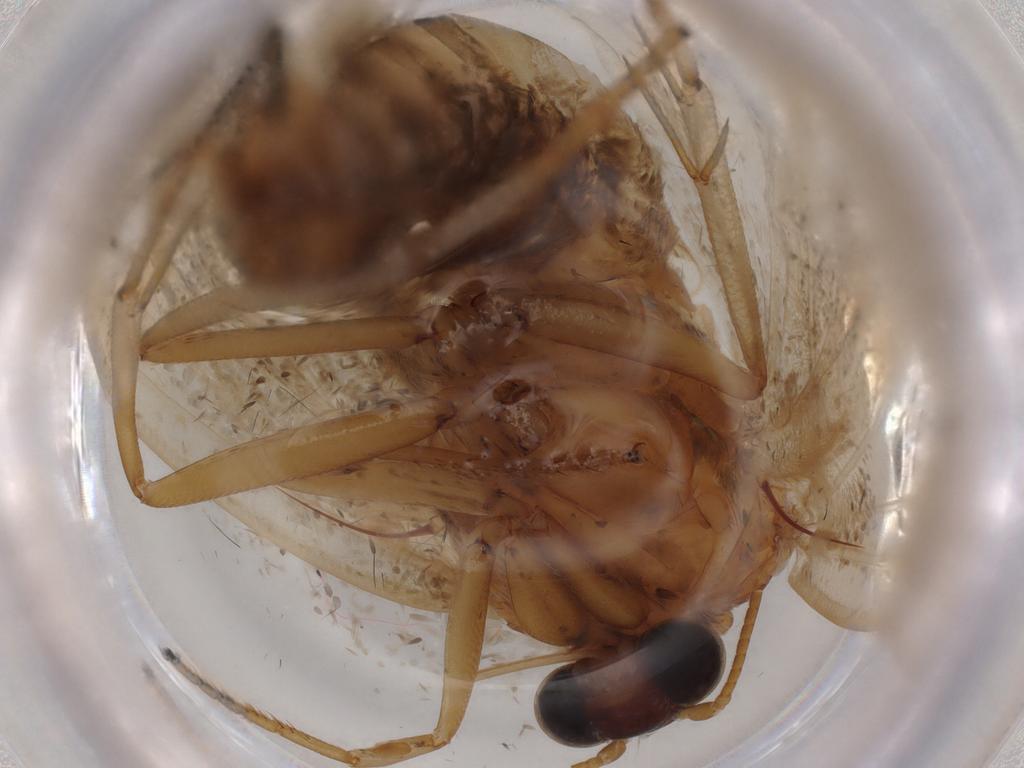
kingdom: Animalia
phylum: Arthropoda
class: Insecta
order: Lepidoptera
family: Noctuidae
